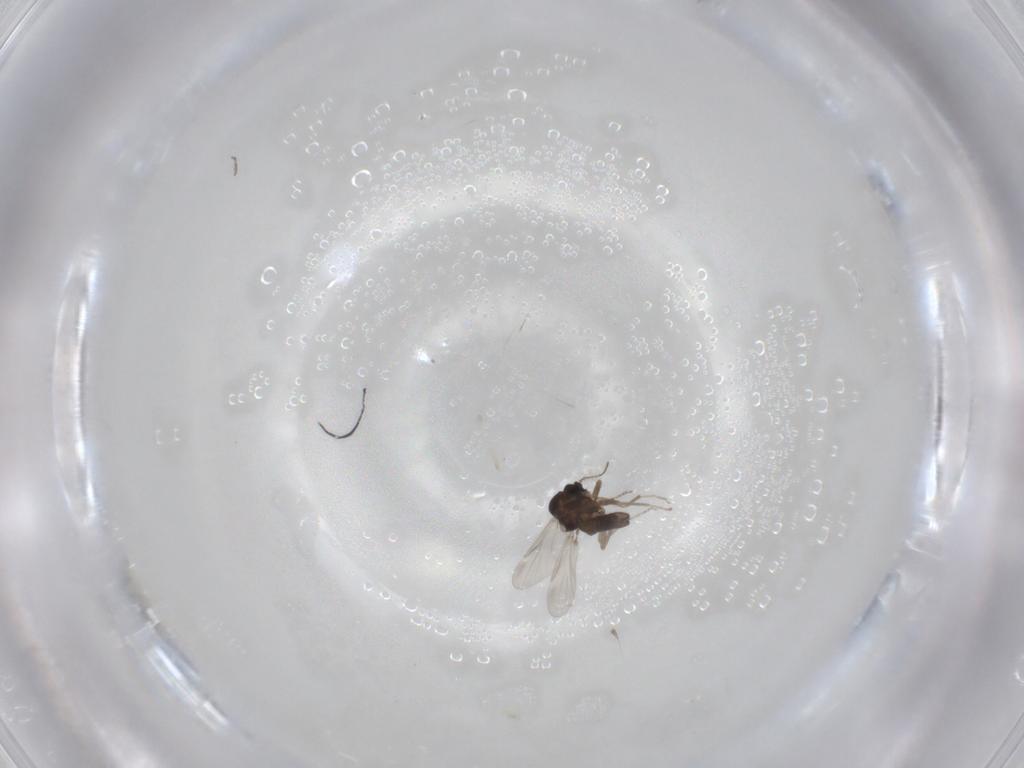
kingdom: Animalia
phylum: Arthropoda
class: Insecta
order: Diptera
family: Ceratopogonidae
